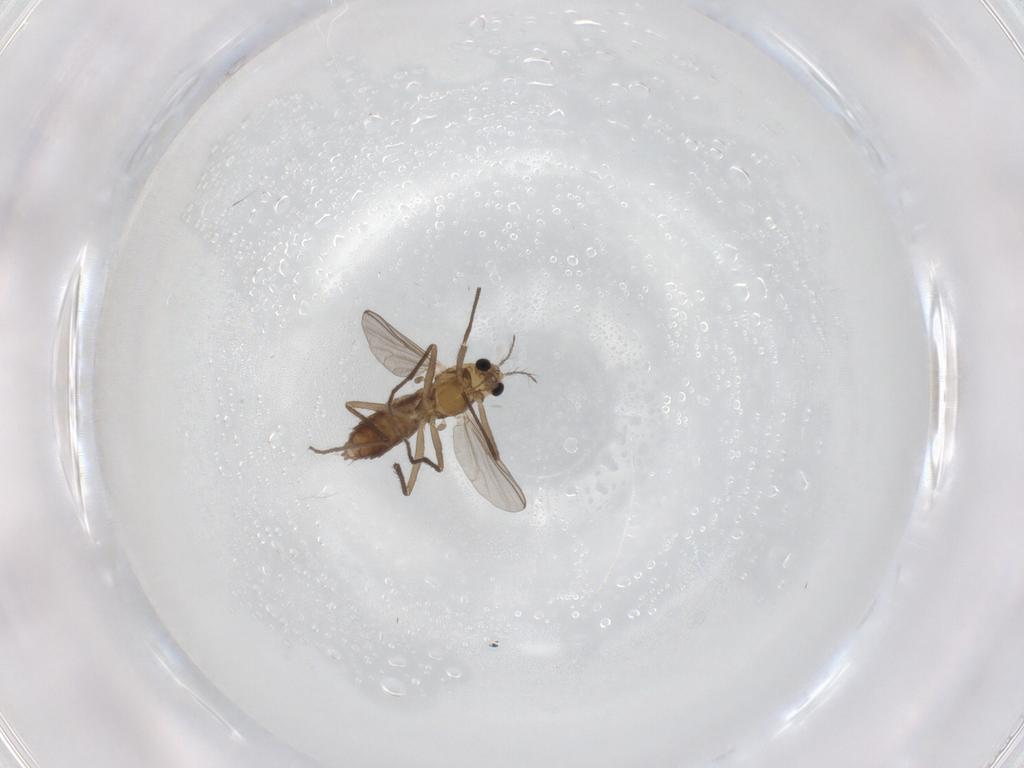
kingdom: Animalia
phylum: Arthropoda
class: Insecta
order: Diptera
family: Chironomidae
